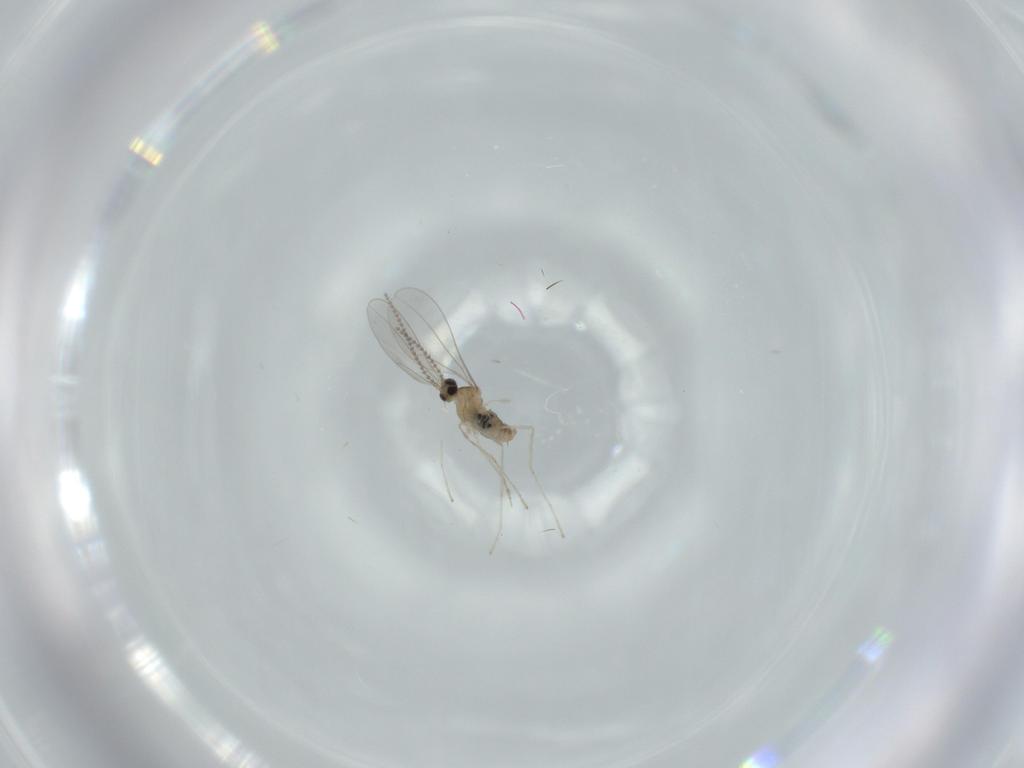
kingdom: Animalia
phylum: Arthropoda
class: Insecta
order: Diptera
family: Cecidomyiidae
